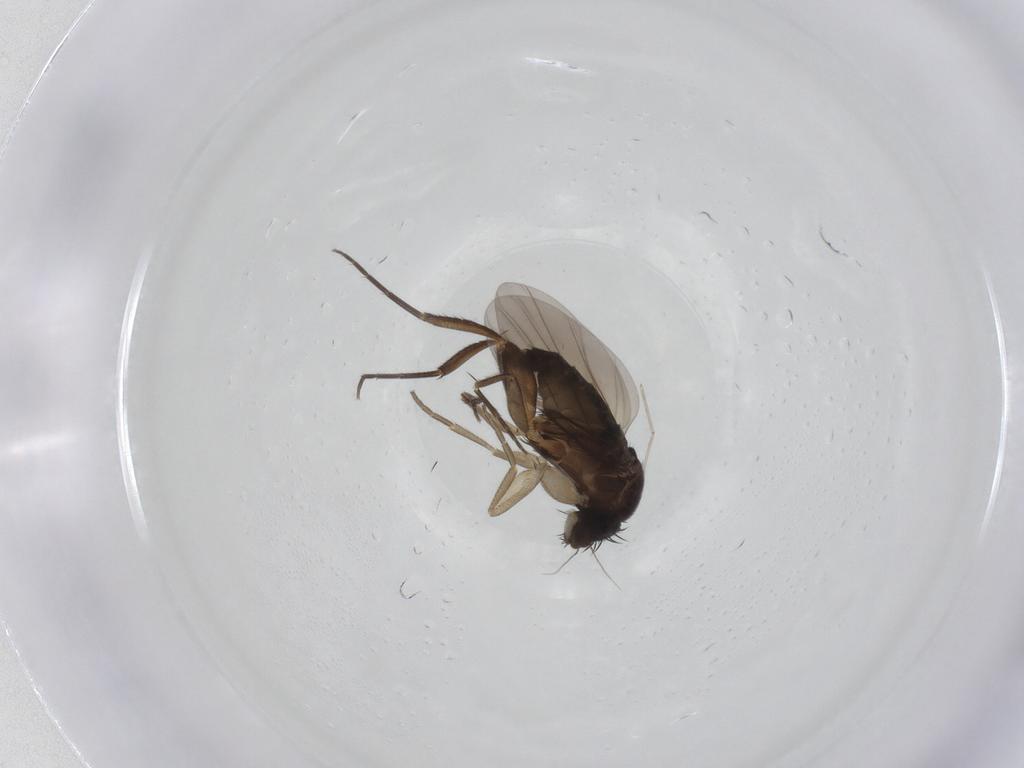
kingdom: Animalia
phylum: Arthropoda
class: Insecta
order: Diptera
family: Phoridae
